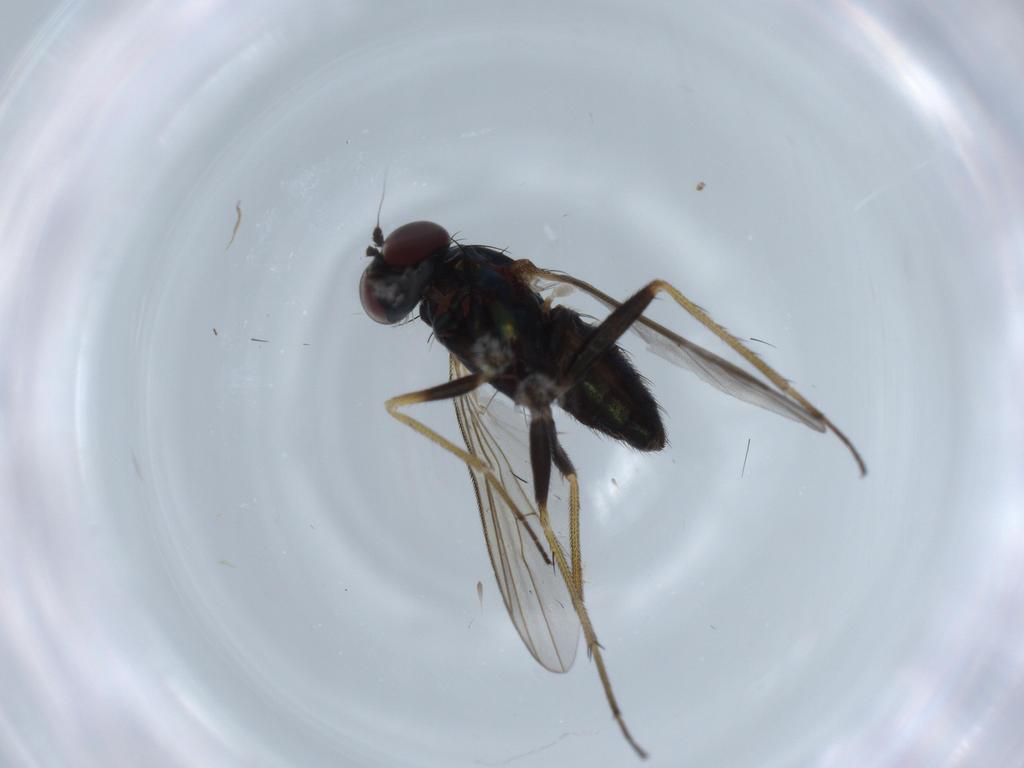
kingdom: Animalia
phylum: Arthropoda
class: Insecta
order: Diptera
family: Dolichopodidae
